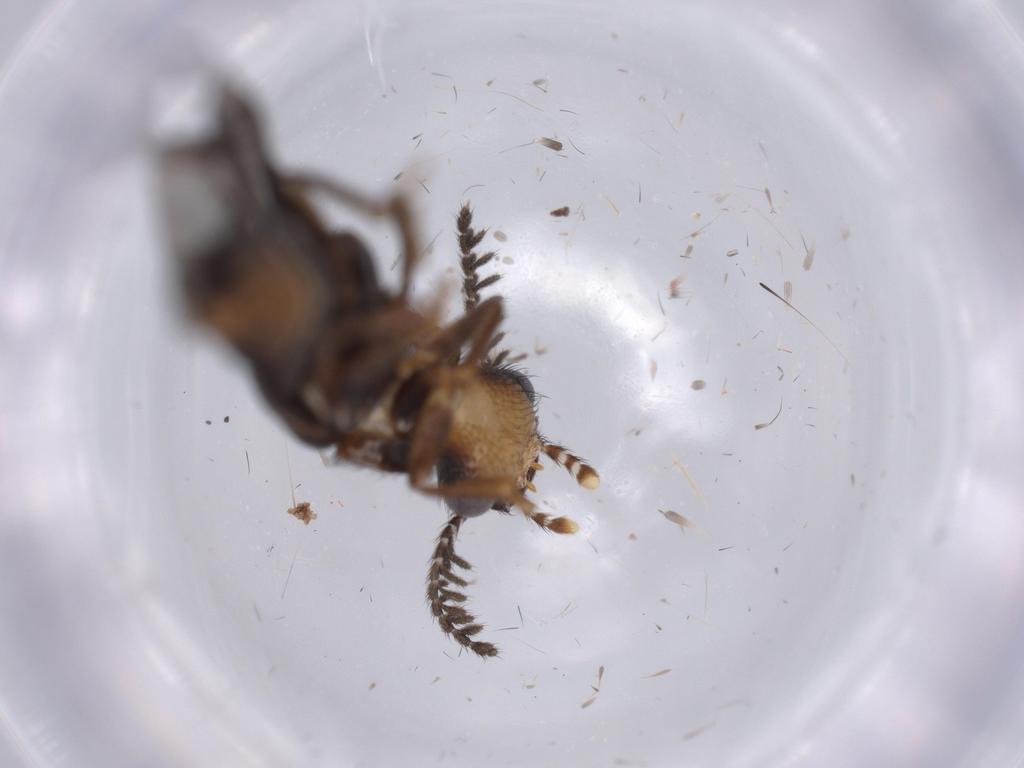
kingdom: Animalia
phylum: Arthropoda
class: Insecta
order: Coleoptera
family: Phengodidae
